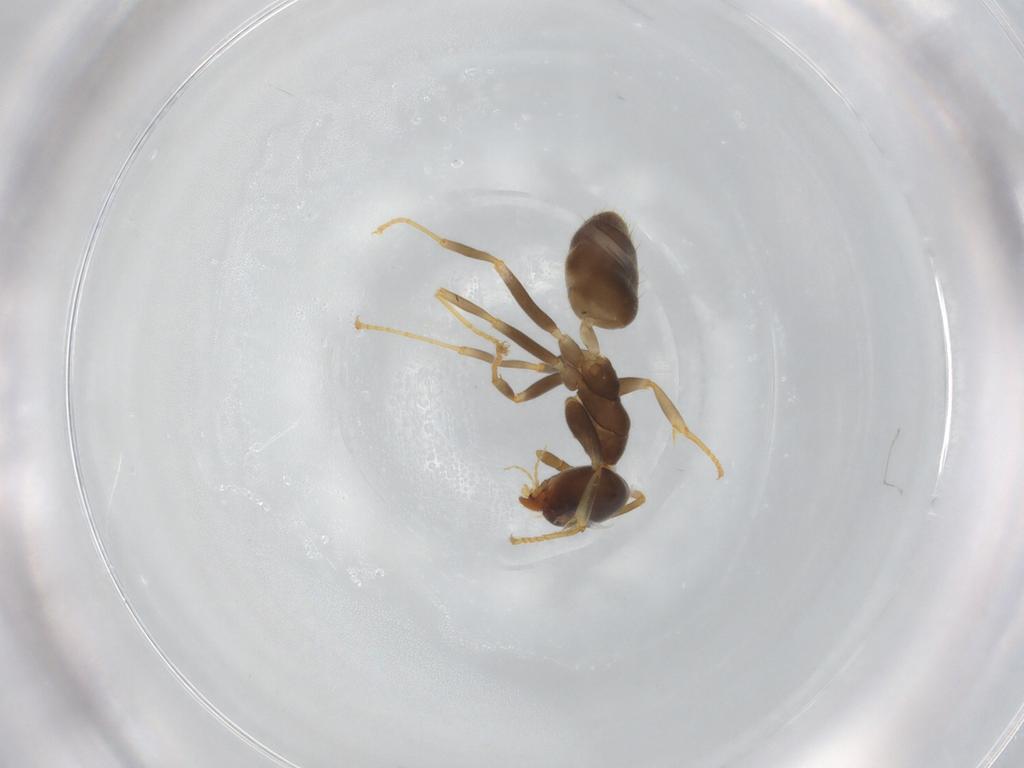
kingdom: Animalia
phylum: Arthropoda
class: Insecta
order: Hymenoptera
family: Formicidae
